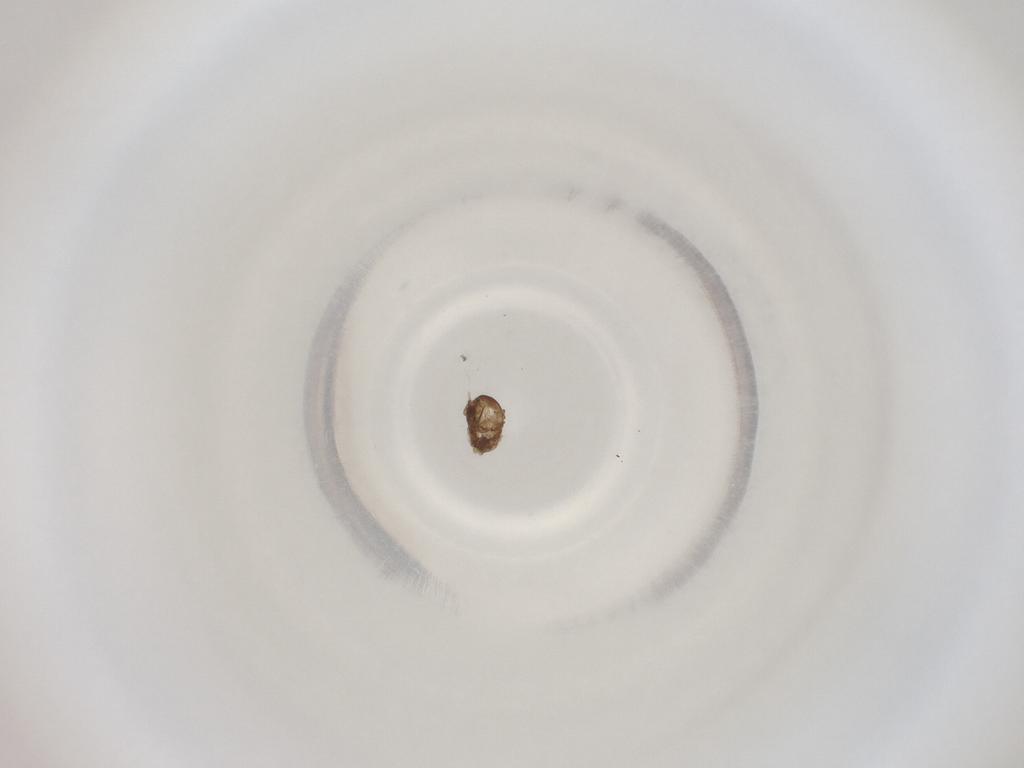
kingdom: Animalia
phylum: Arthropoda
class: Insecta
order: Diptera
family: Cecidomyiidae
